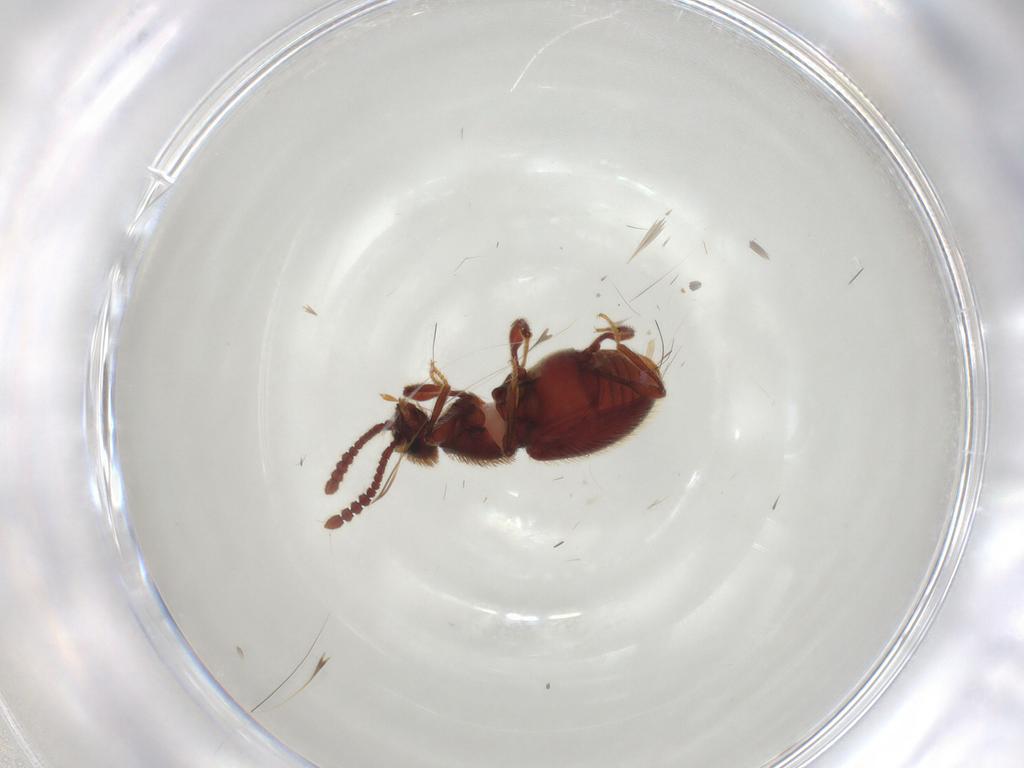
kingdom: Animalia
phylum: Arthropoda
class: Insecta
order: Coleoptera
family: Staphylinidae
